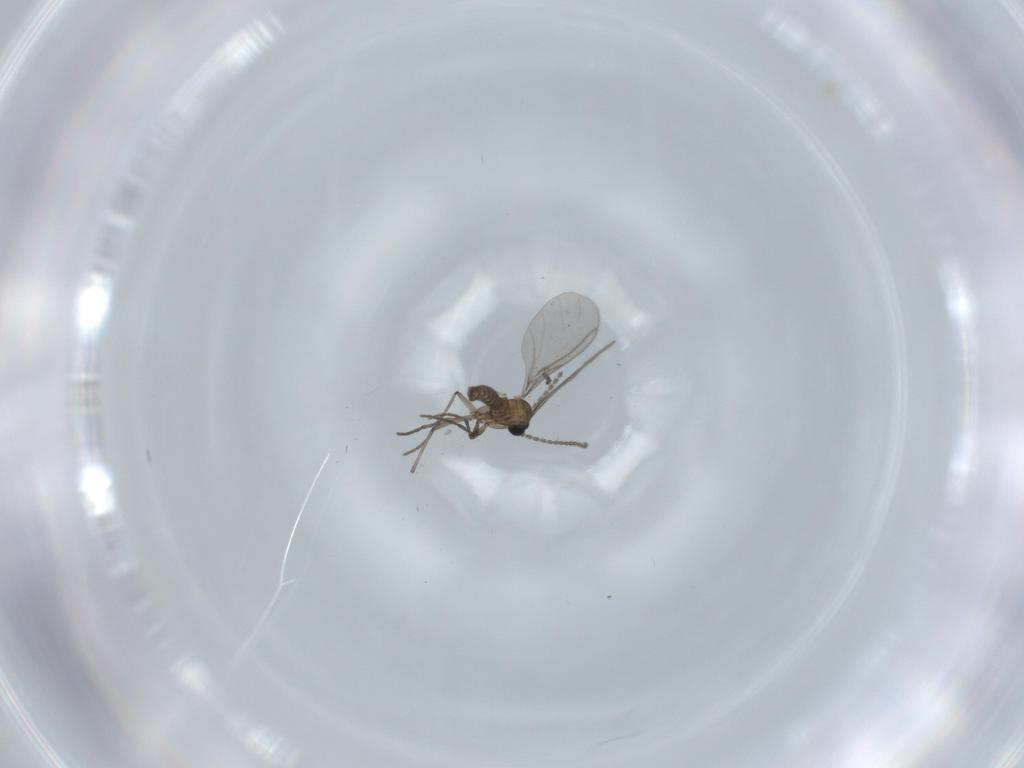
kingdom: Animalia
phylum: Arthropoda
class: Insecta
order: Diptera
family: Sciaridae
